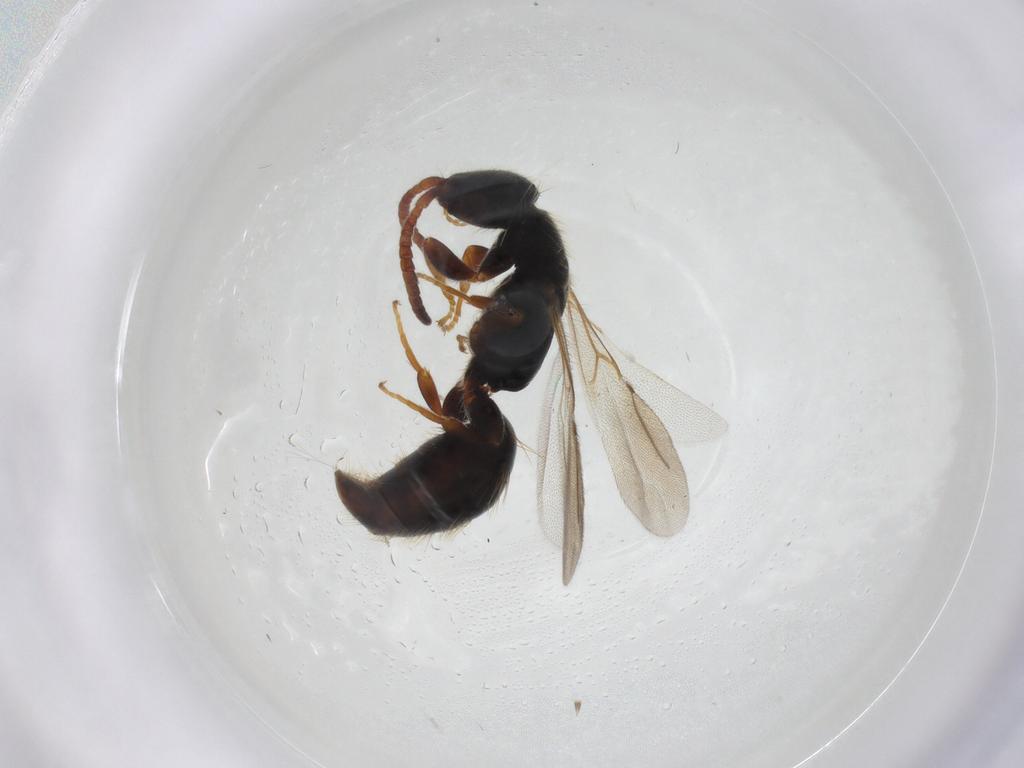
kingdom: Animalia
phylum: Arthropoda
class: Insecta
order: Hymenoptera
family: Bethylidae
